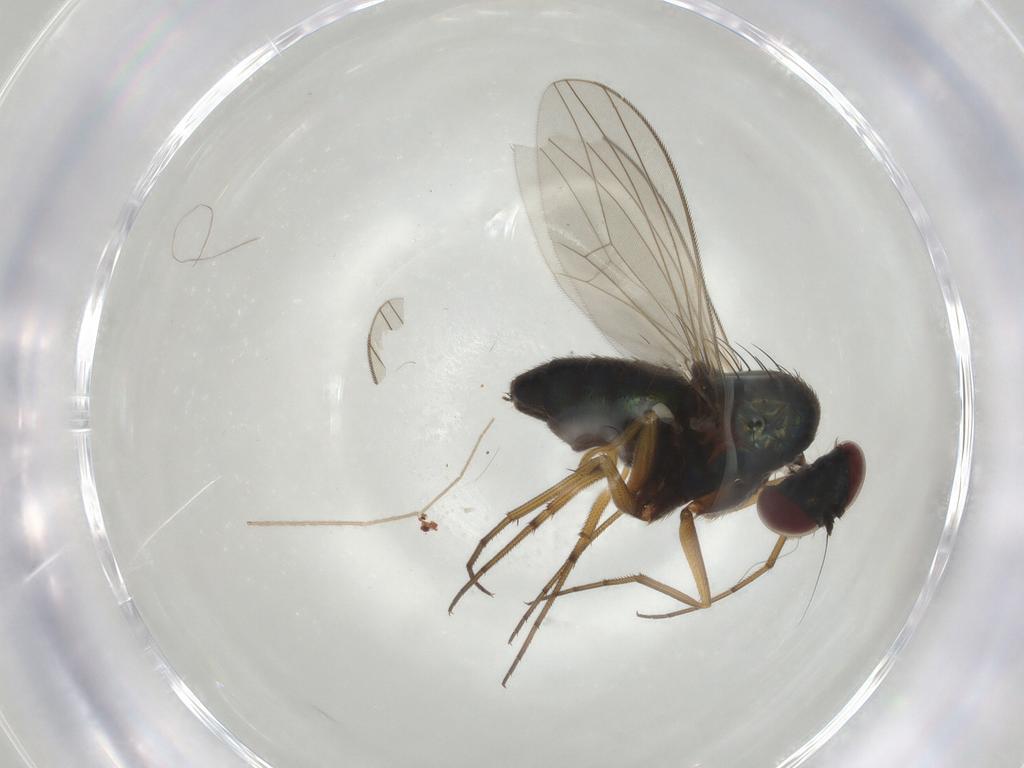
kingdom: Animalia
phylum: Arthropoda
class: Insecta
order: Diptera
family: Dolichopodidae
